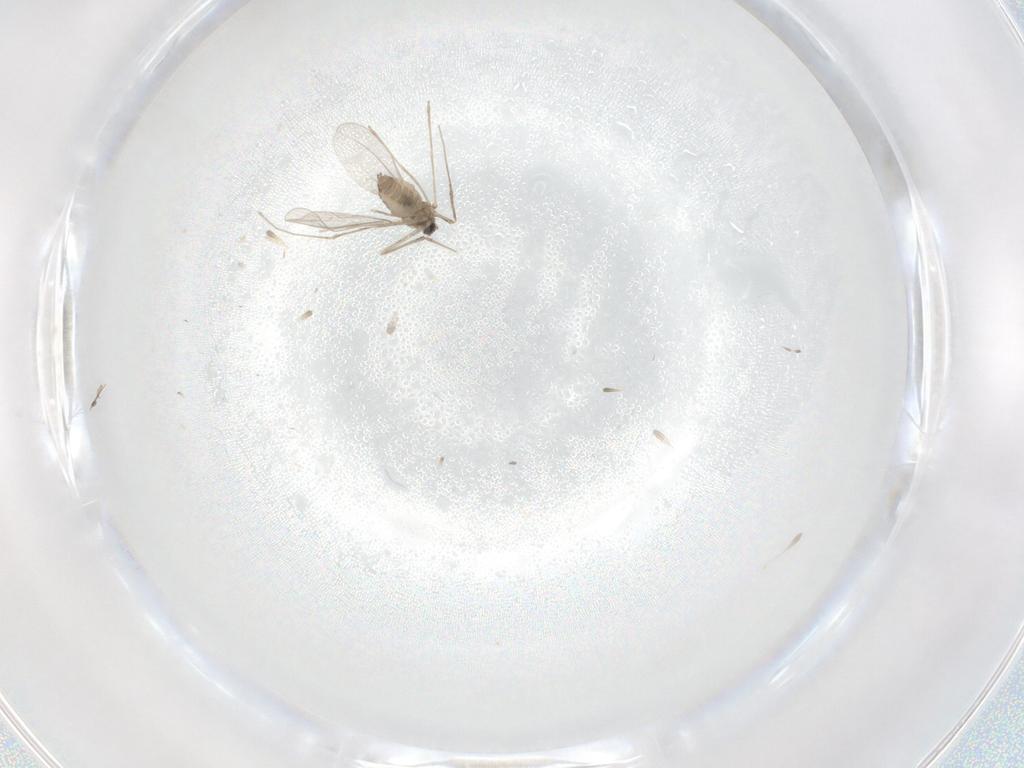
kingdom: Animalia
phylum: Arthropoda
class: Insecta
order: Diptera
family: Cecidomyiidae
